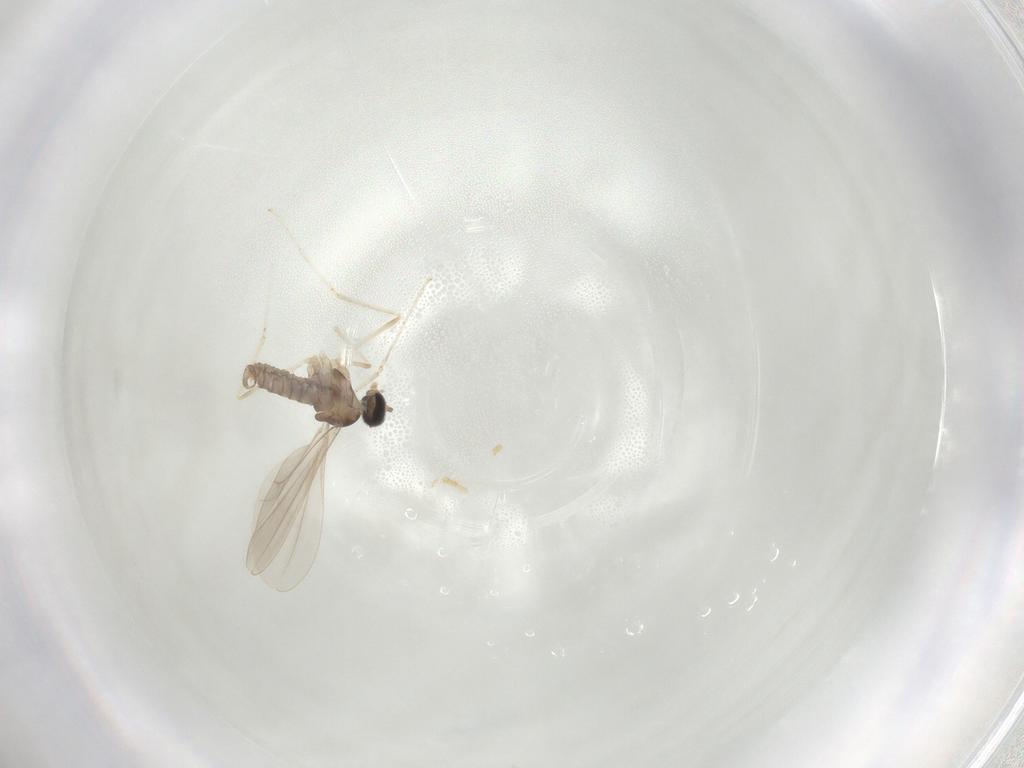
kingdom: Animalia
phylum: Arthropoda
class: Insecta
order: Diptera
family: Cecidomyiidae
